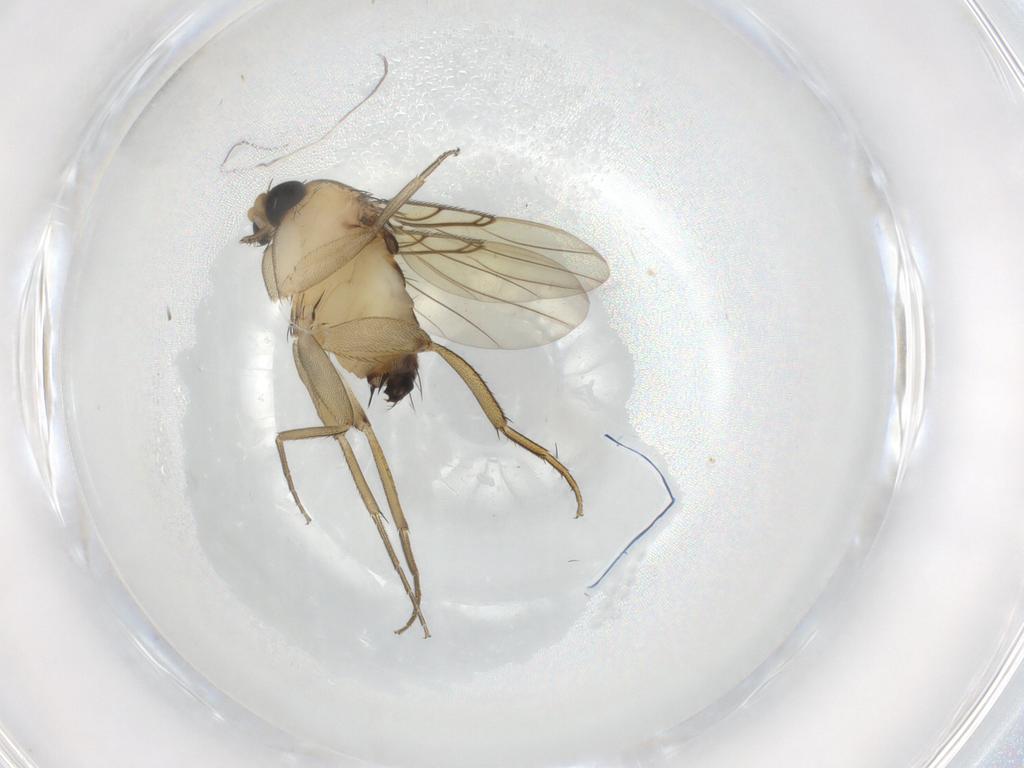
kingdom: Animalia
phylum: Arthropoda
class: Insecta
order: Diptera
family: Phoridae
